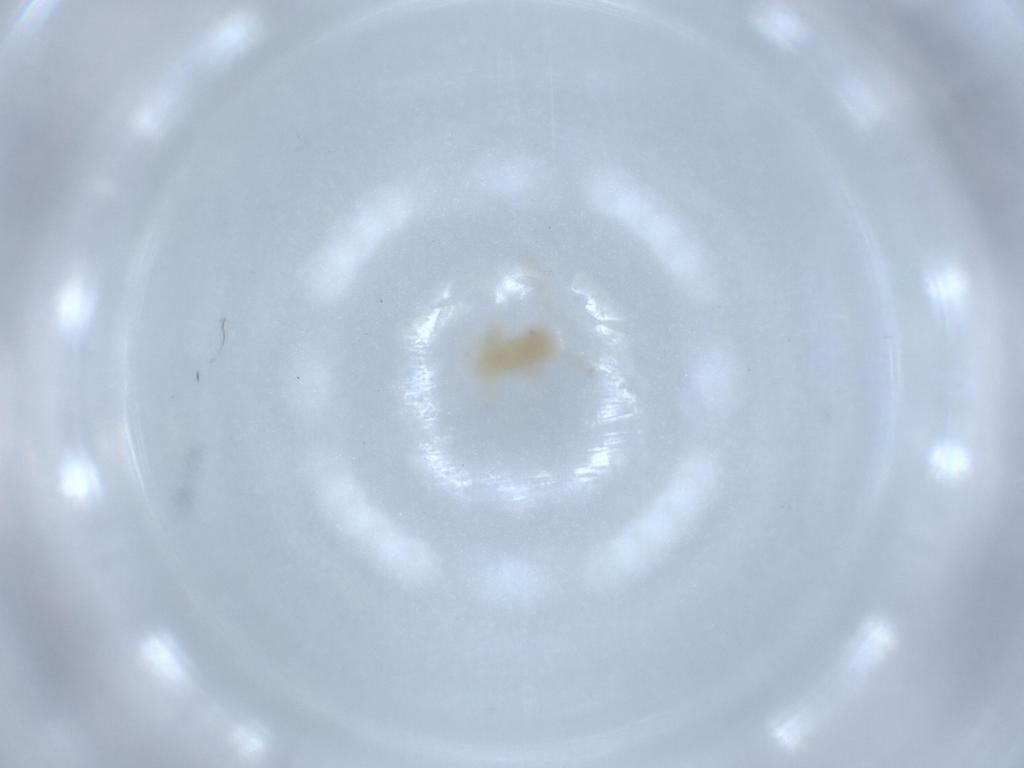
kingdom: Animalia
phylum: Arthropoda
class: Insecta
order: Hemiptera
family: Miridae
